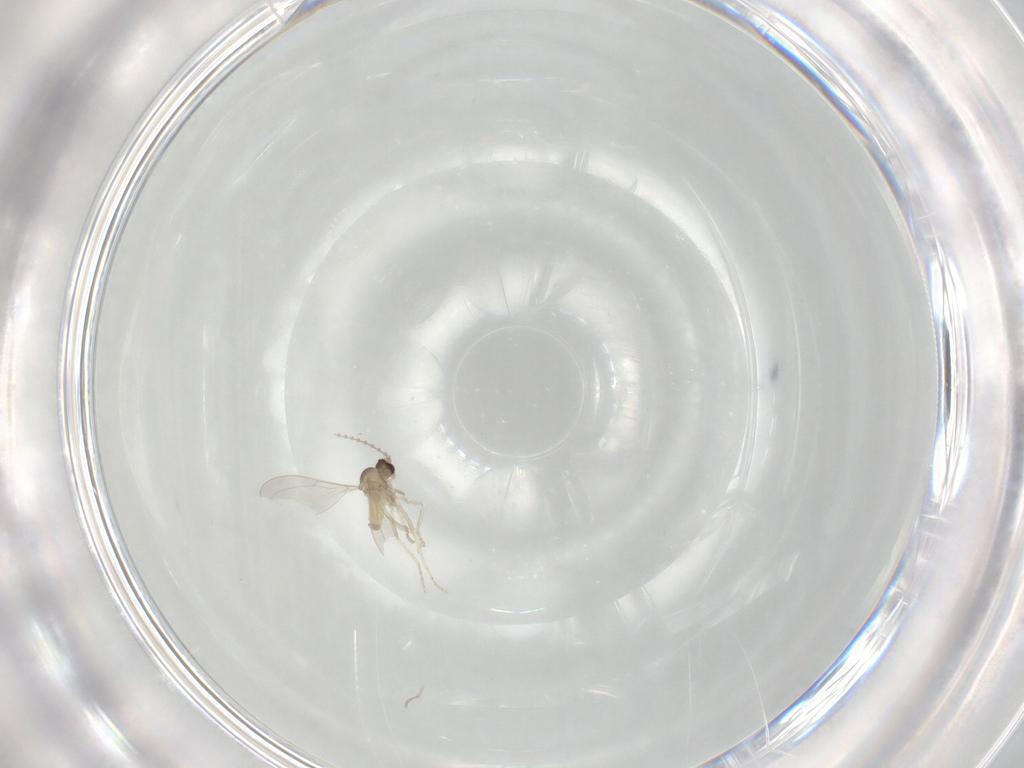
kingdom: Animalia
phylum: Arthropoda
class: Insecta
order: Diptera
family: Cecidomyiidae
